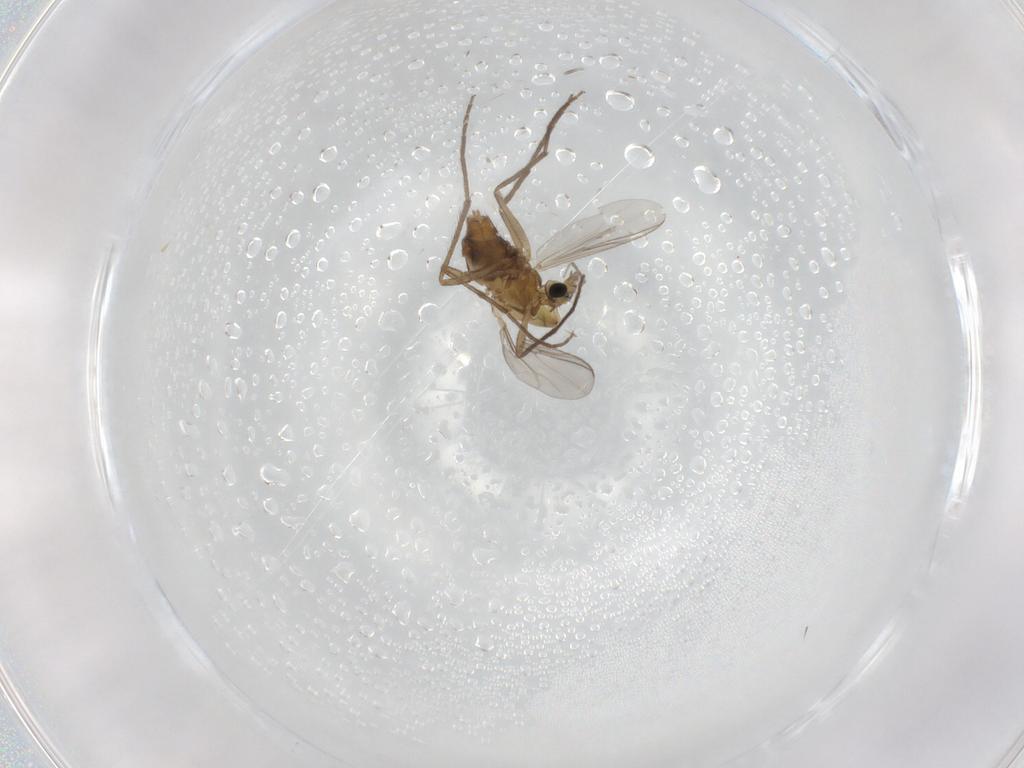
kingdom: Animalia
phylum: Arthropoda
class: Insecta
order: Diptera
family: Chironomidae
